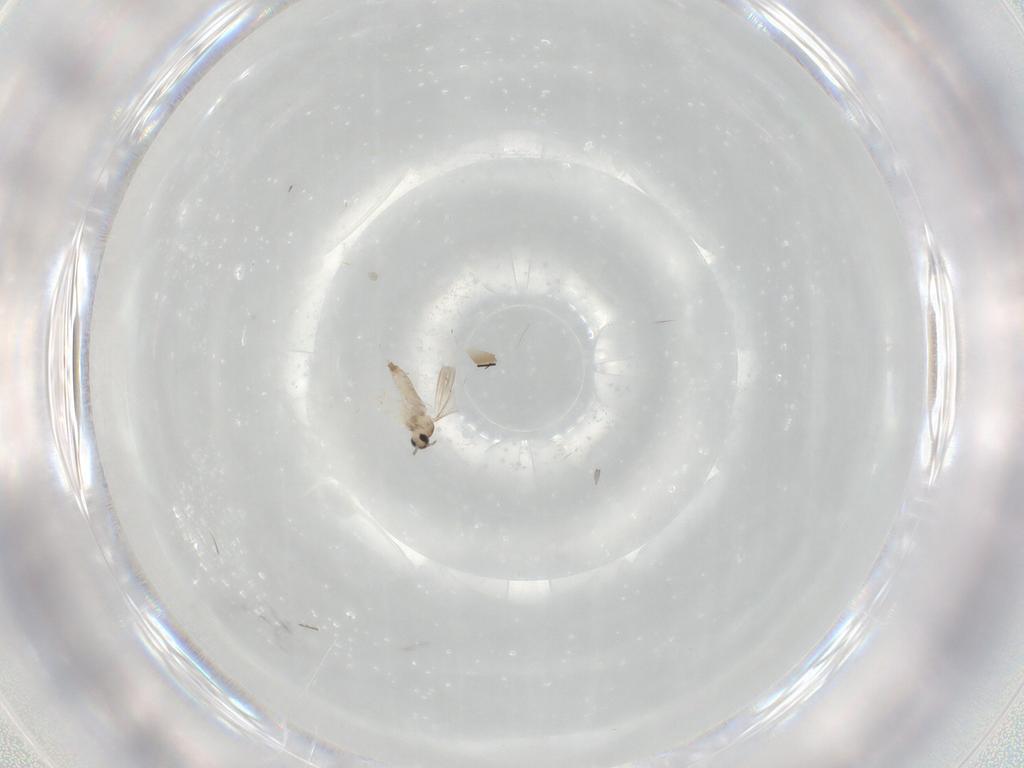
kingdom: Animalia
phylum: Arthropoda
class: Insecta
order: Diptera
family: Chironomidae
